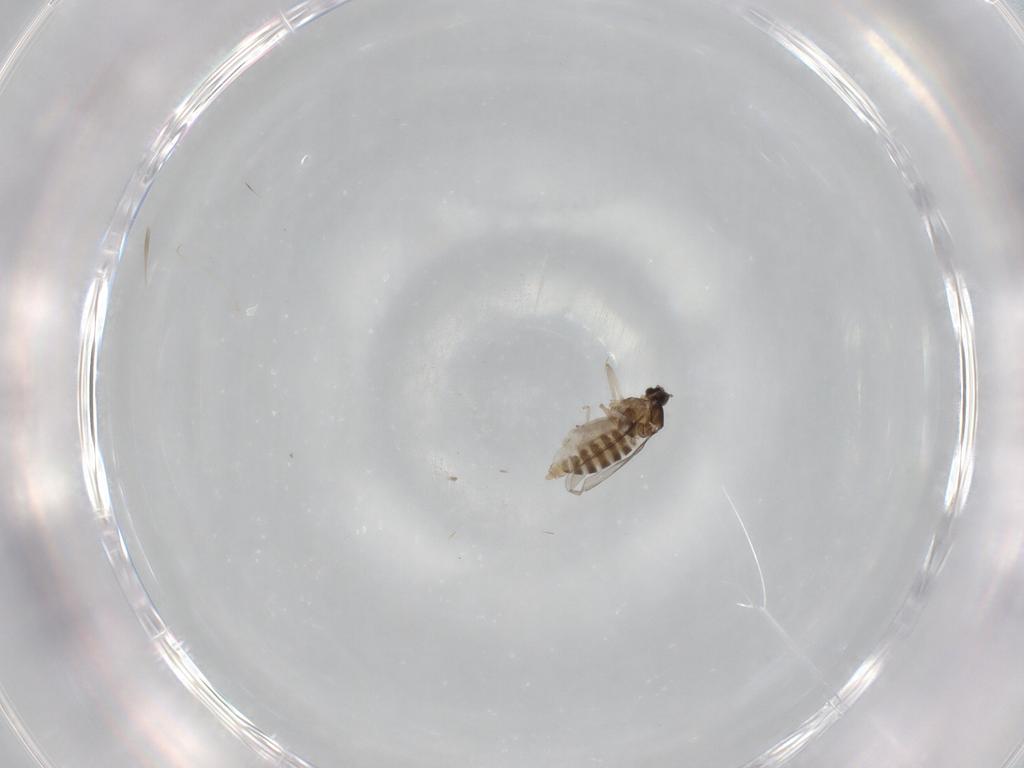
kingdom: Animalia
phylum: Arthropoda
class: Insecta
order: Diptera
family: Cecidomyiidae
